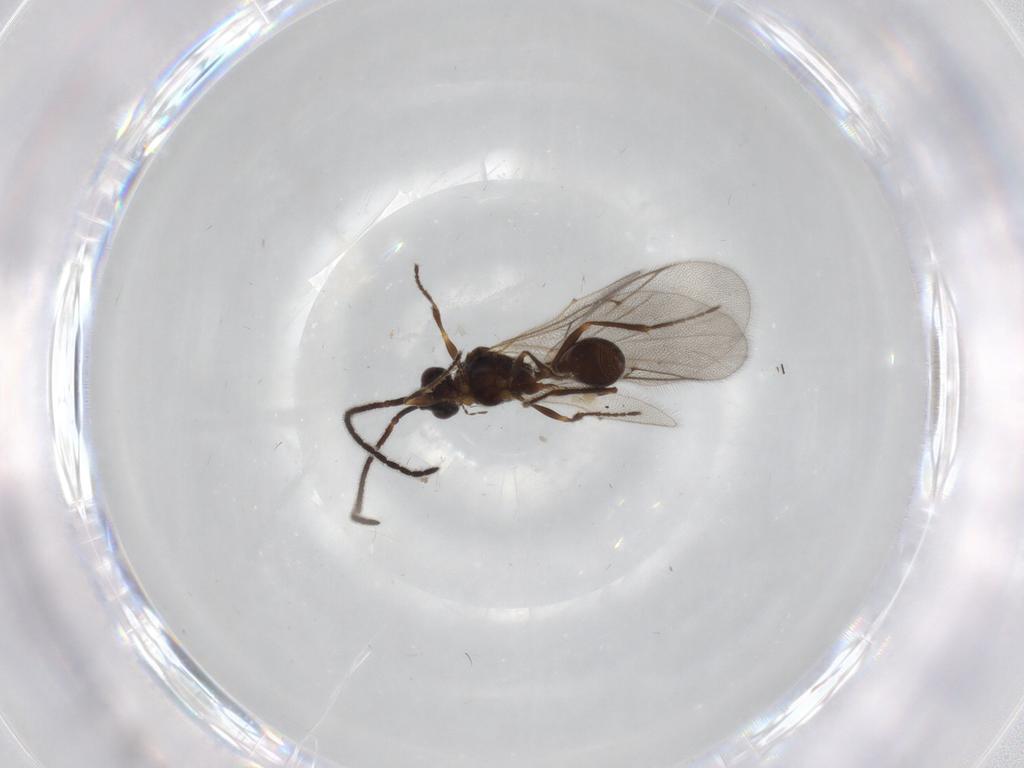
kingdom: Animalia
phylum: Arthropoda
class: Insecta
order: Hymenoptera
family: Diapriidae
